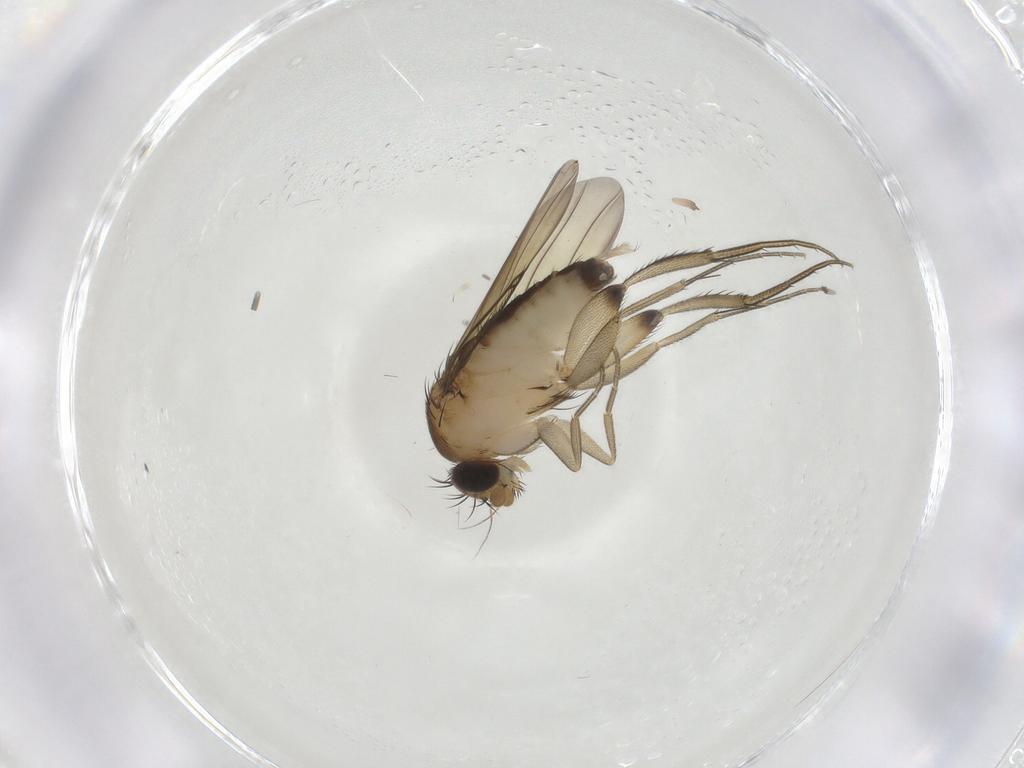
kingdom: Animalia
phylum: Arthropoda
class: Insecta
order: Diptera
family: Phoridae
